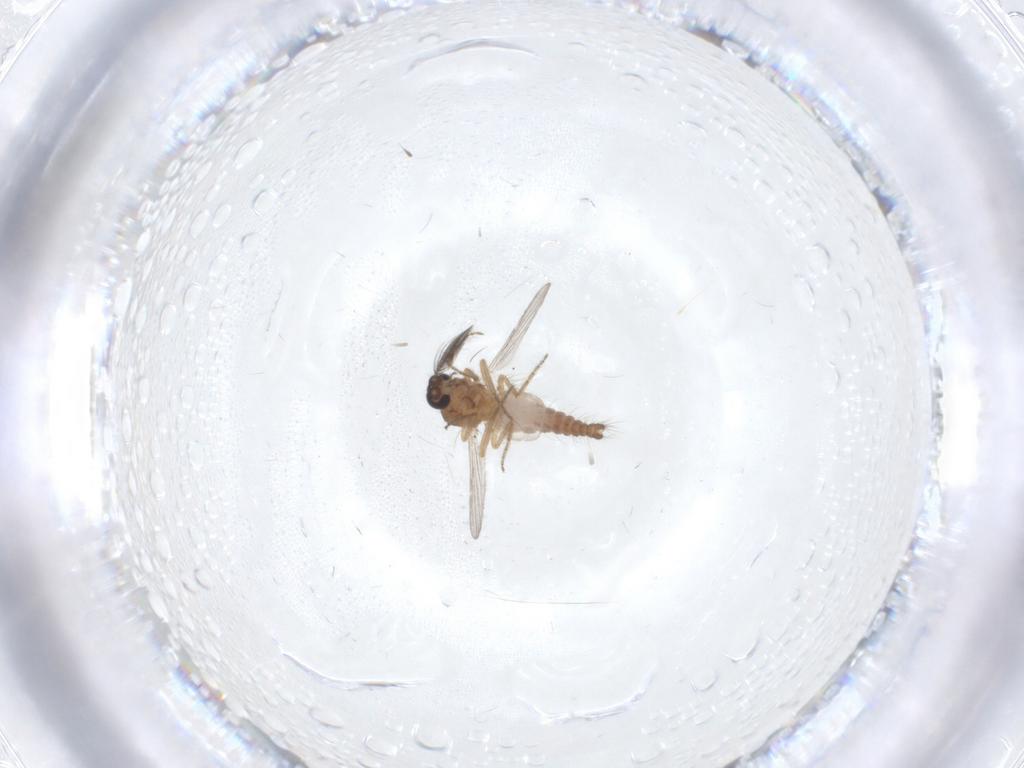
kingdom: Animalia
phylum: Arthropoda
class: Insecta
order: Diptera
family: Ceratopogonidae
